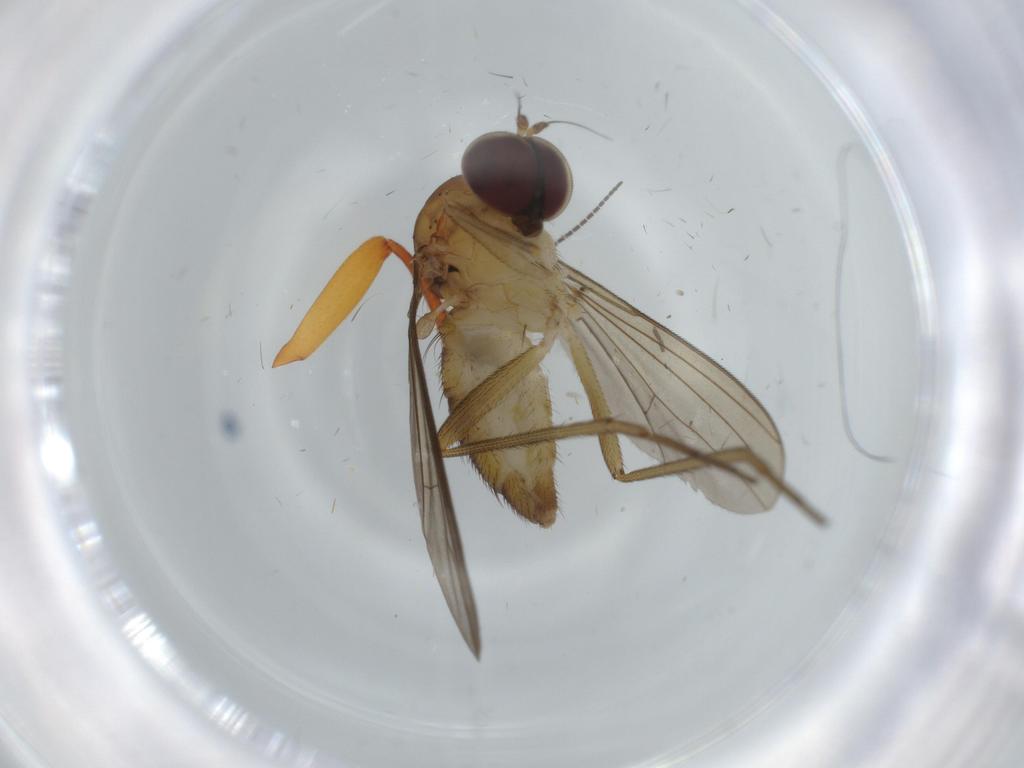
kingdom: Animalia
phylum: Arthropoda
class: Insecta
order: Diptera
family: Dolichopodidae
